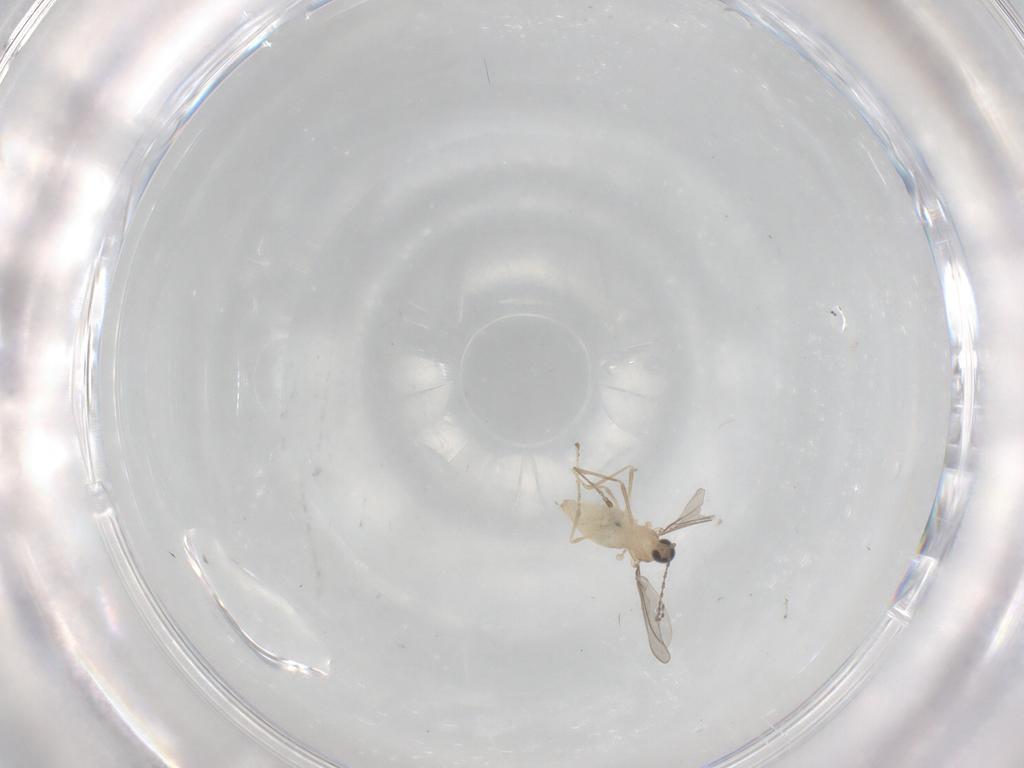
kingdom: Animalia
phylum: Arthropoda
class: Insecta
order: Diptera
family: Cecidomyiidae
